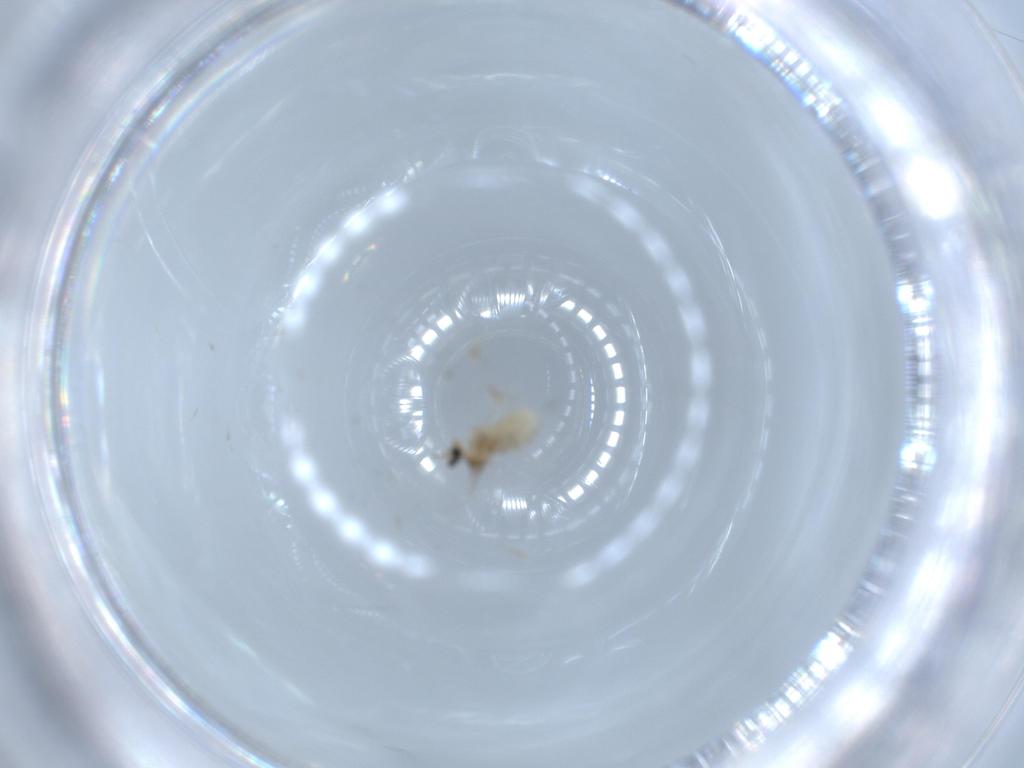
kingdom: Animalia
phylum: Arthropoda
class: Insecta
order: Diptera
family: Cecidomyiidae
